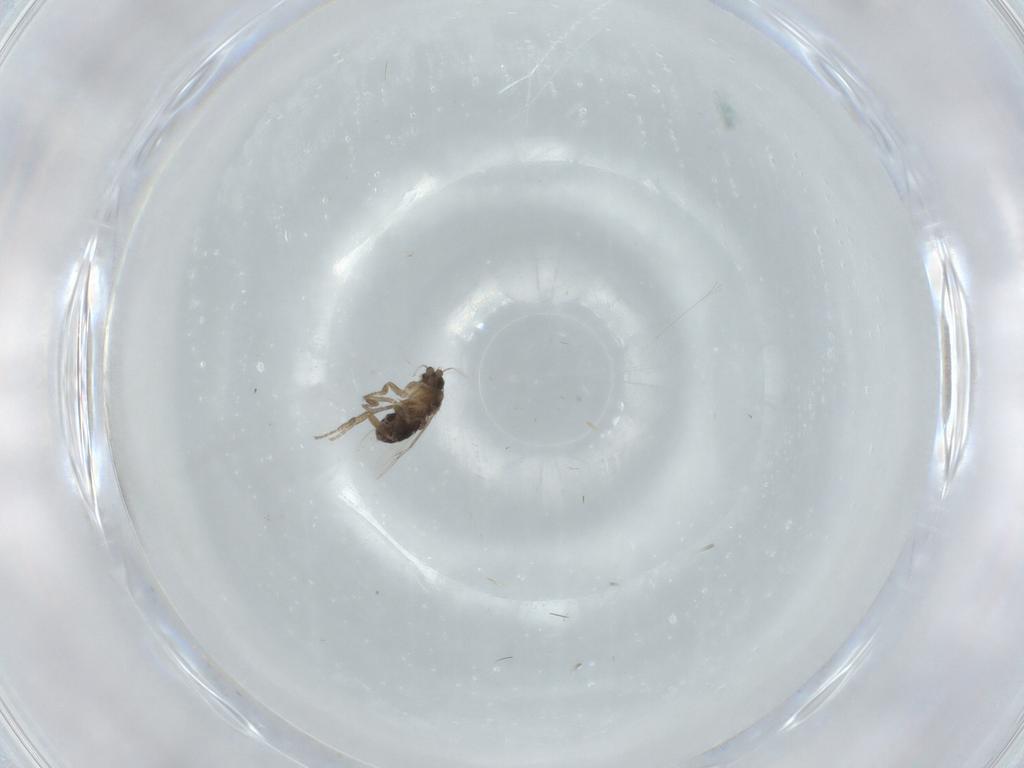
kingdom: Animalia
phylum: Arthropoda
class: Insecta
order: Diptera
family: Phoridae
